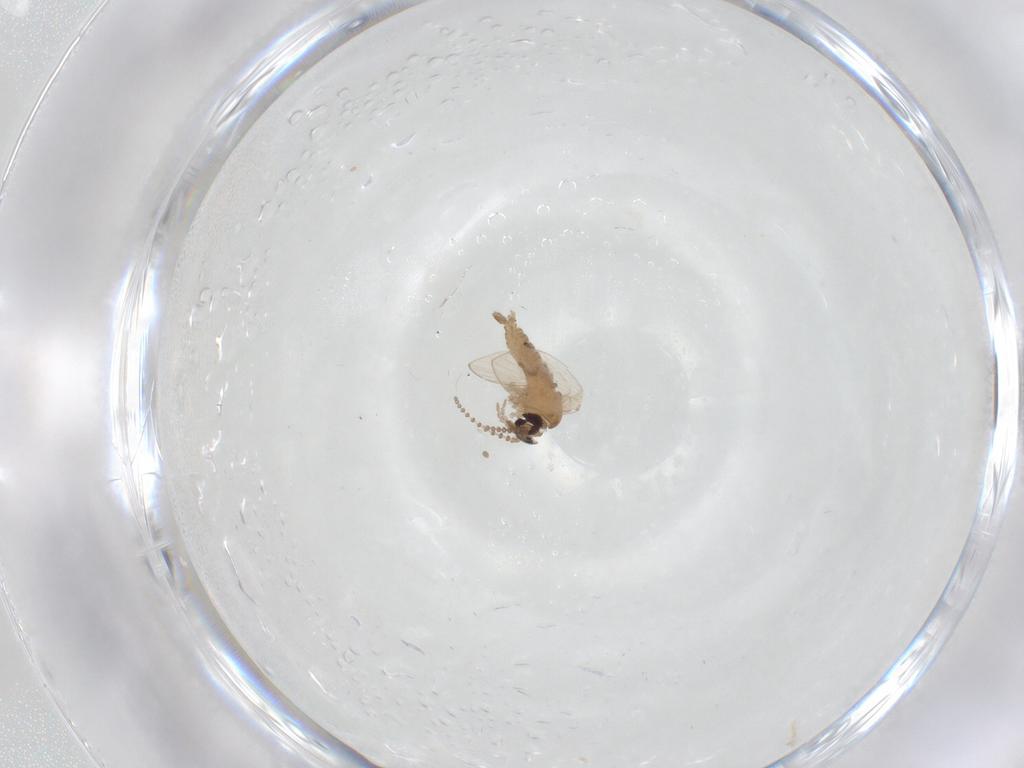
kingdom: Animalia
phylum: Arthropoda
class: Insecta
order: Diptera
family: Psychodidae
